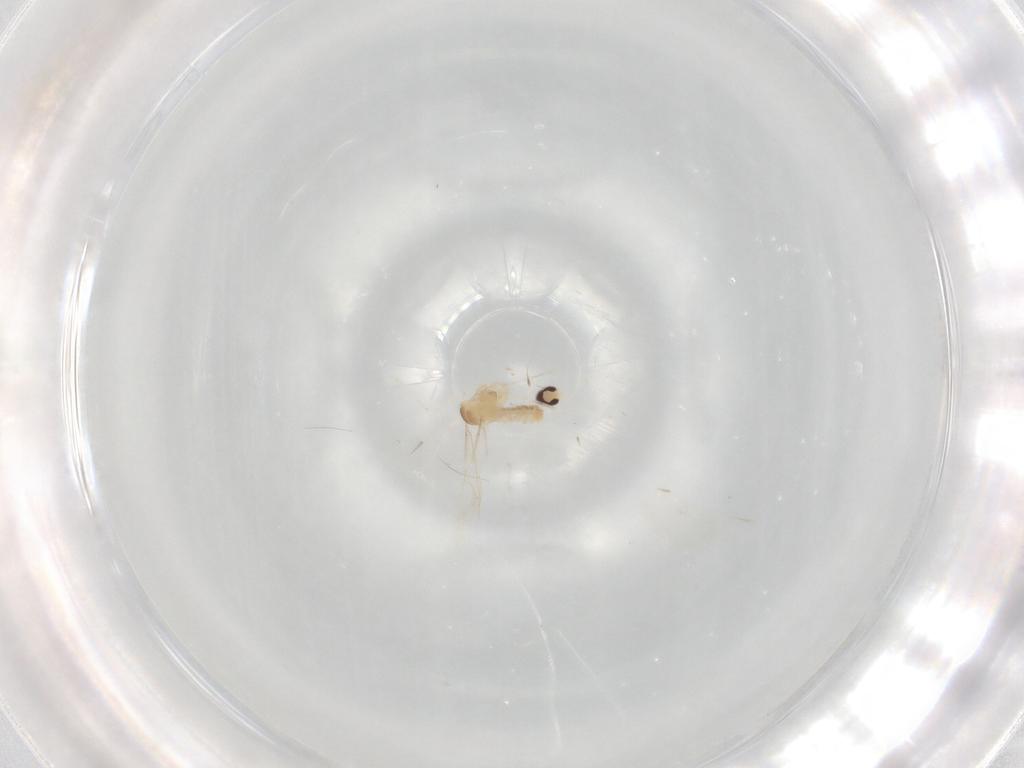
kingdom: Animalia
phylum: Arthropoda
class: Insecta
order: Diptera
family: Cecidomyiidae
